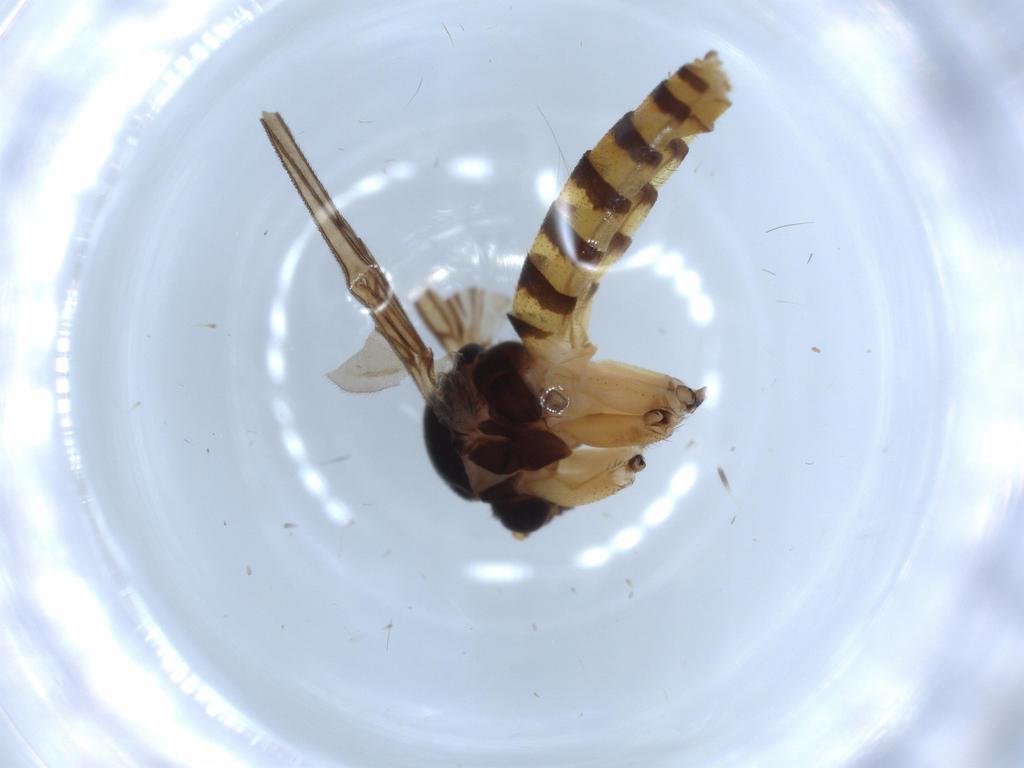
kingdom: Animalia
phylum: Arthropoda
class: Insecta
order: Diptera
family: Mycetophilidae
